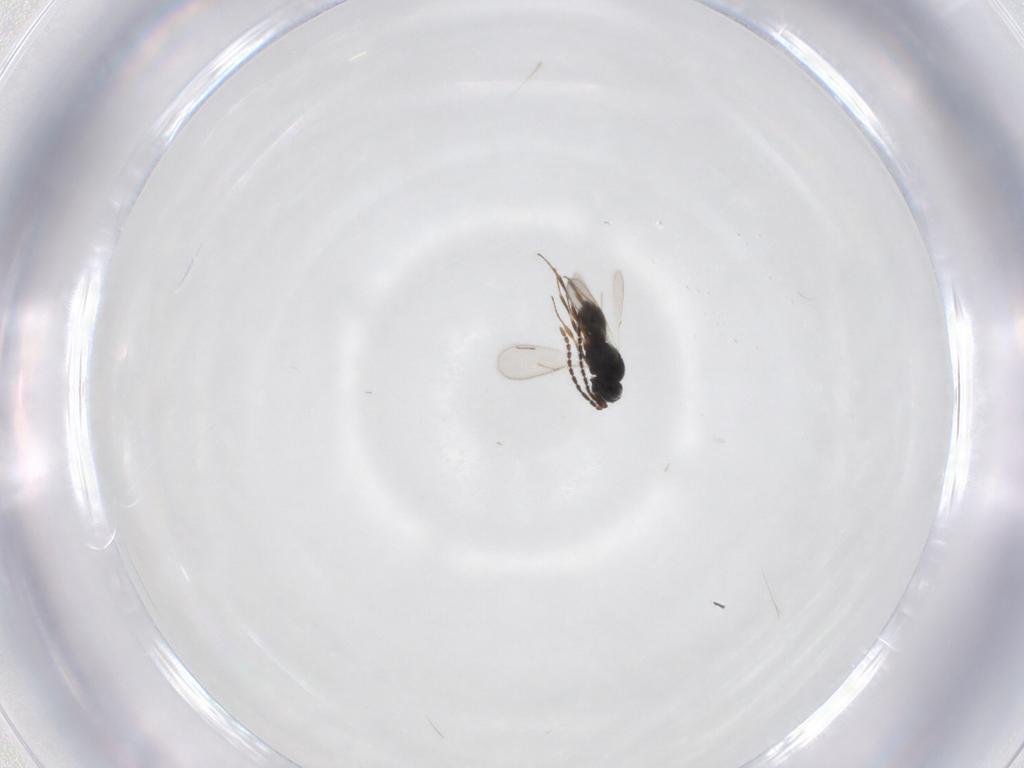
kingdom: Animalia
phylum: Arthropoda
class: Insecta
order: Hymenoptera
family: Scelionidae
